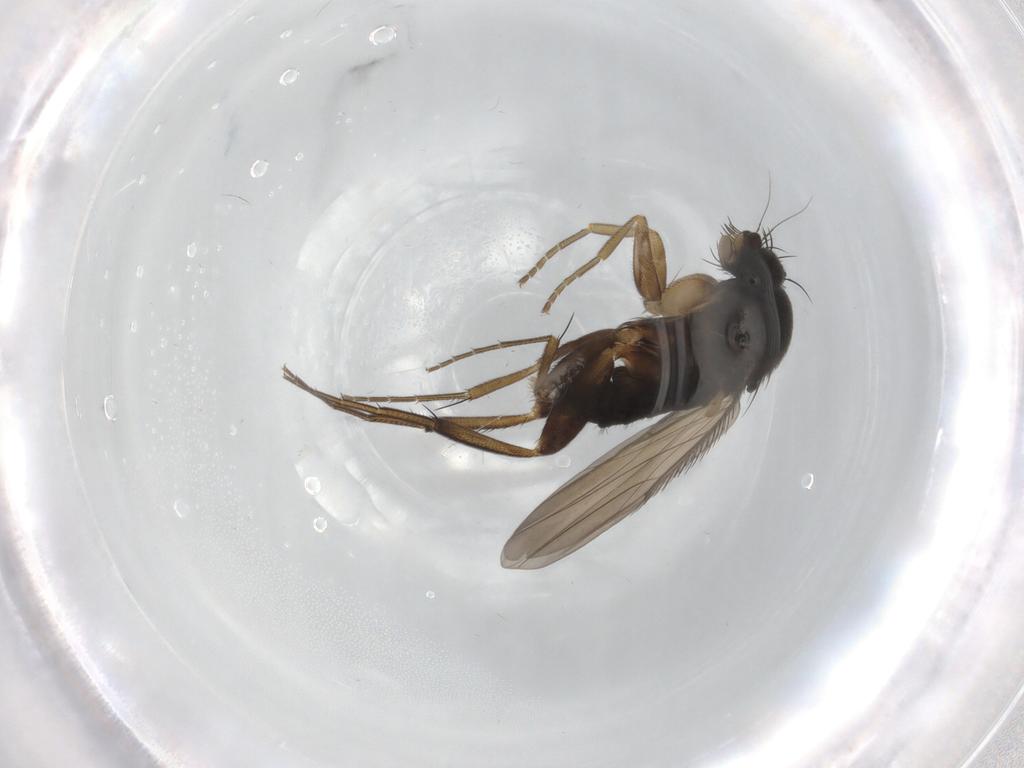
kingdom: Animalia
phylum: Arthropoda
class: Insecta
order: Diptera
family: Phoridae
